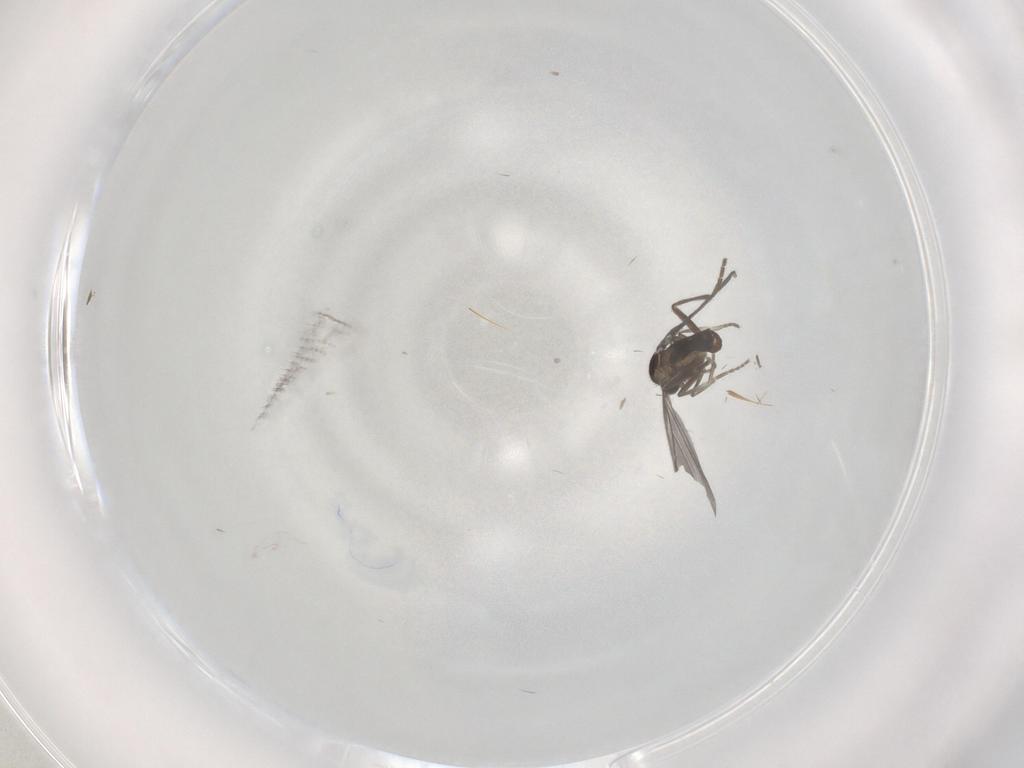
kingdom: Animalia
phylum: Arthropoda
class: Insecta
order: Diptera
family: Phoridae
